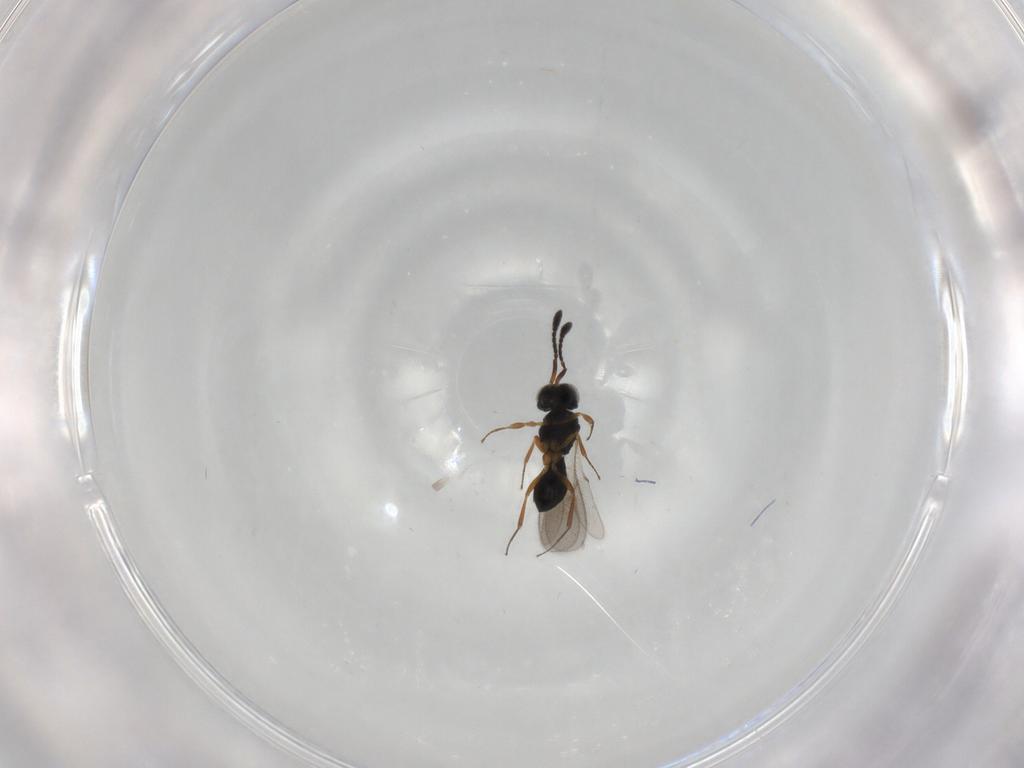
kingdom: Animalia
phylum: Arthropoda
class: Insecta
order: Hymenoptera
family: Scelionidae
